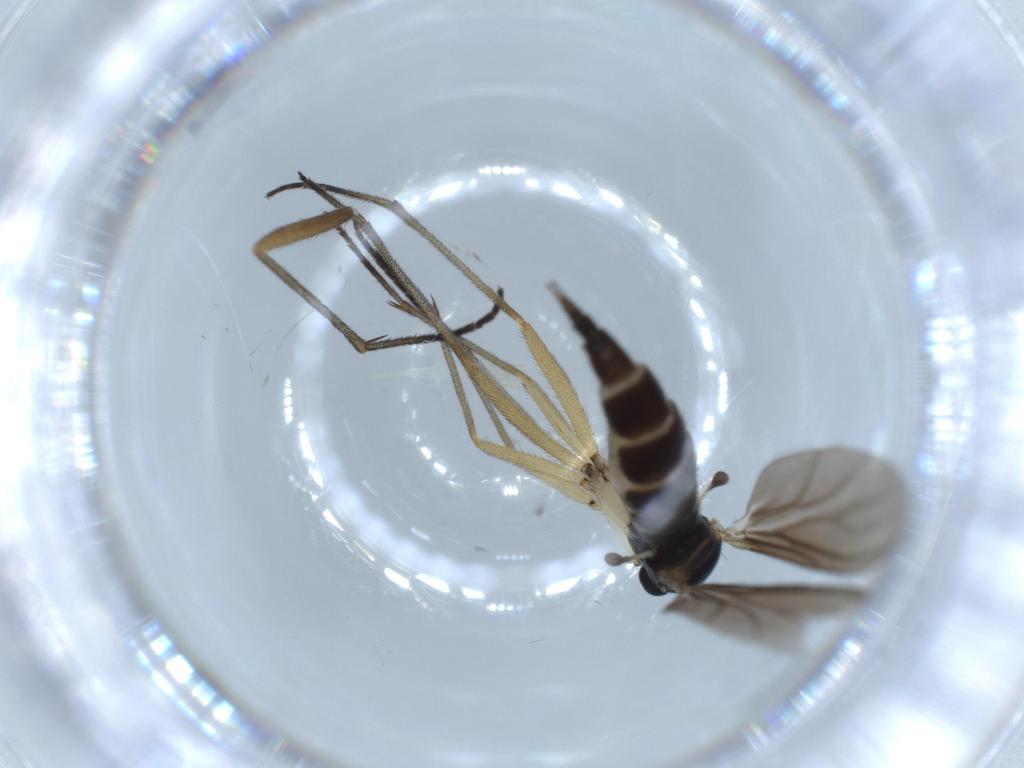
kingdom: Animalia
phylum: Arthropoda
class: Insecta
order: Diptera
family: Sciaridae
